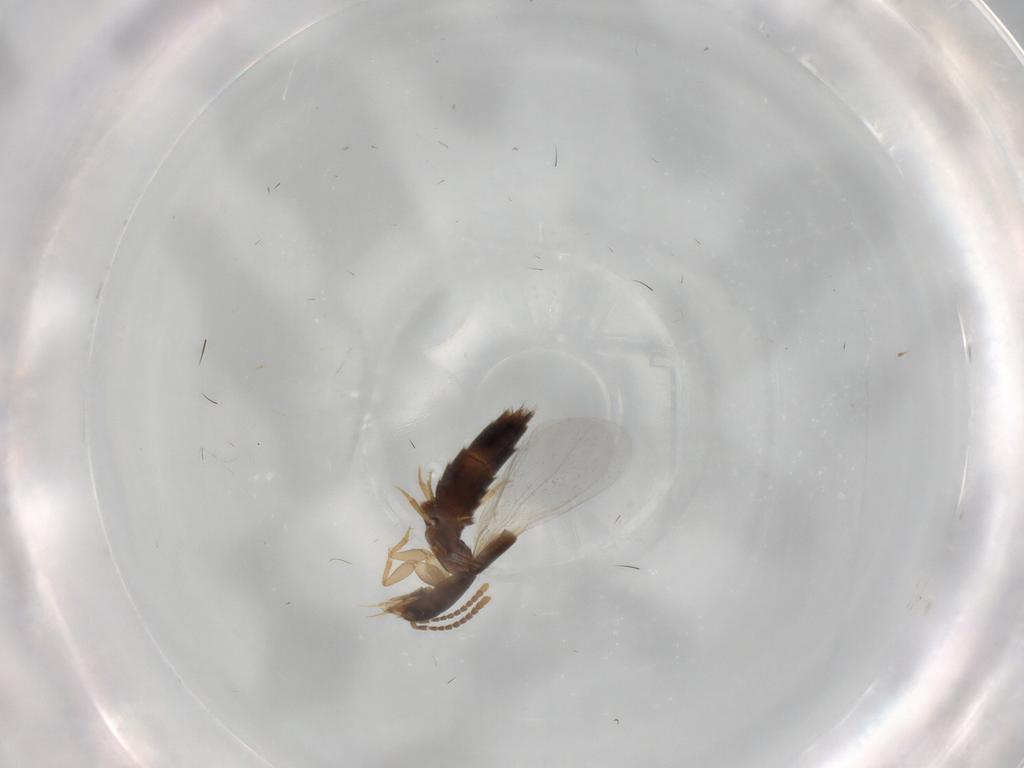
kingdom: Animalia
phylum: Arthropoda
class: Insecta
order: Coleoptera
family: Staphylinidae
